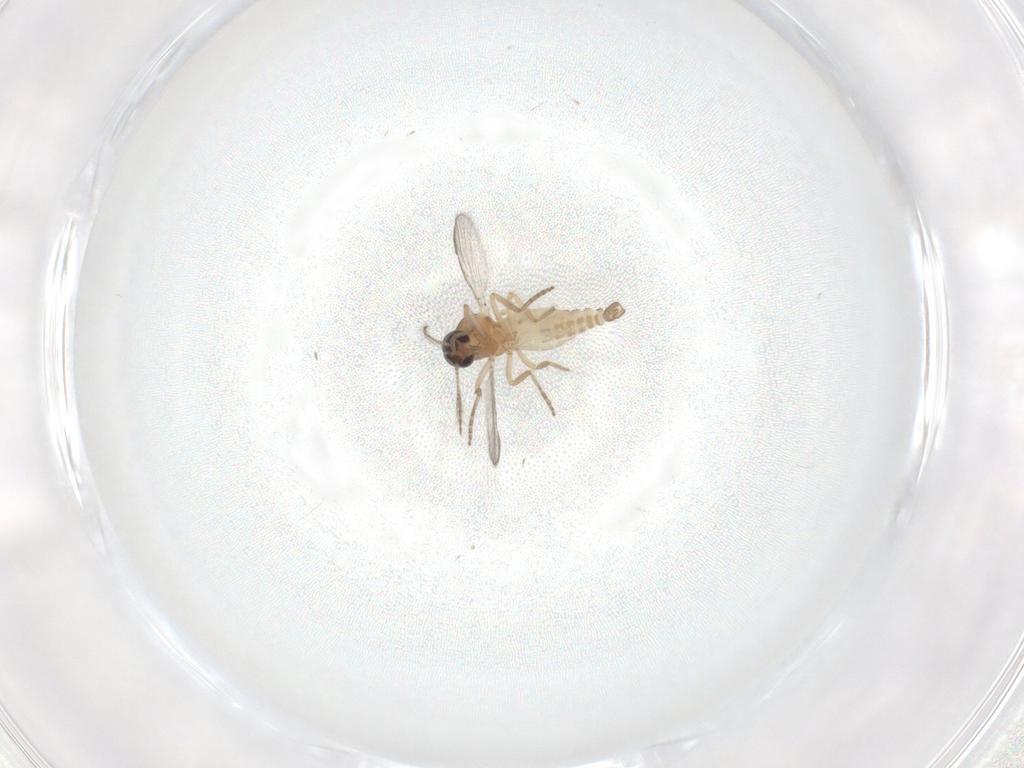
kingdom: Animalia
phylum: Arthropoda
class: Insecta
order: Diptera
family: Ceratopogonidae
